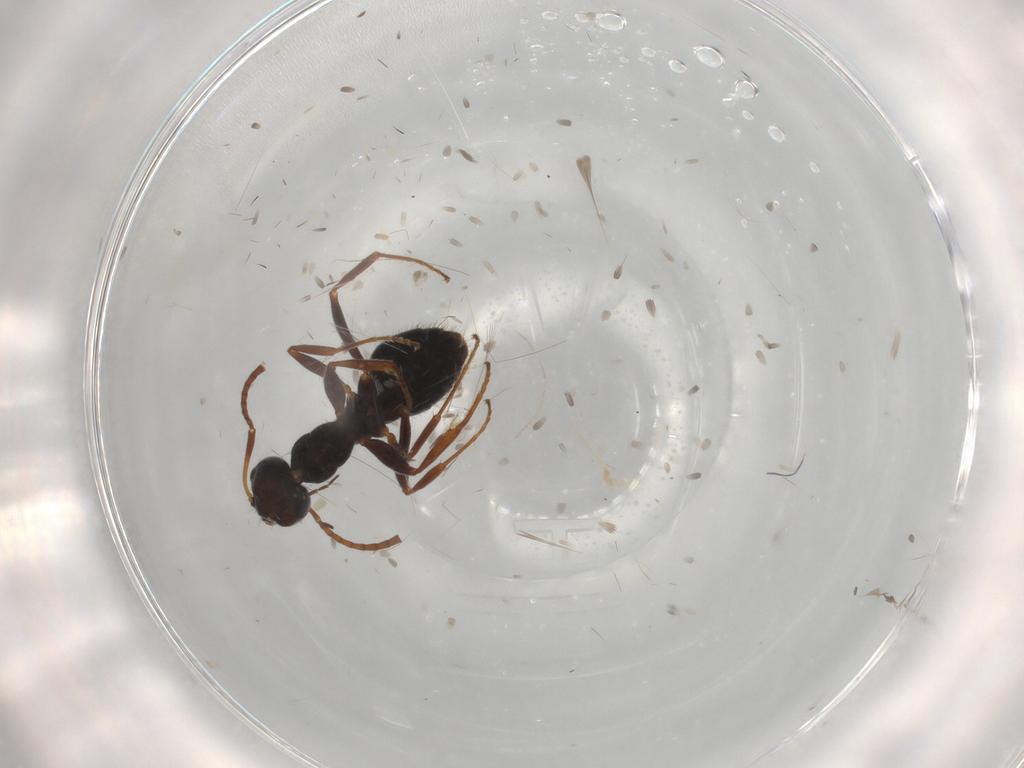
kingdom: Animalia
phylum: Arthropoda
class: Insecta
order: Hymenoptera
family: Formicidae
